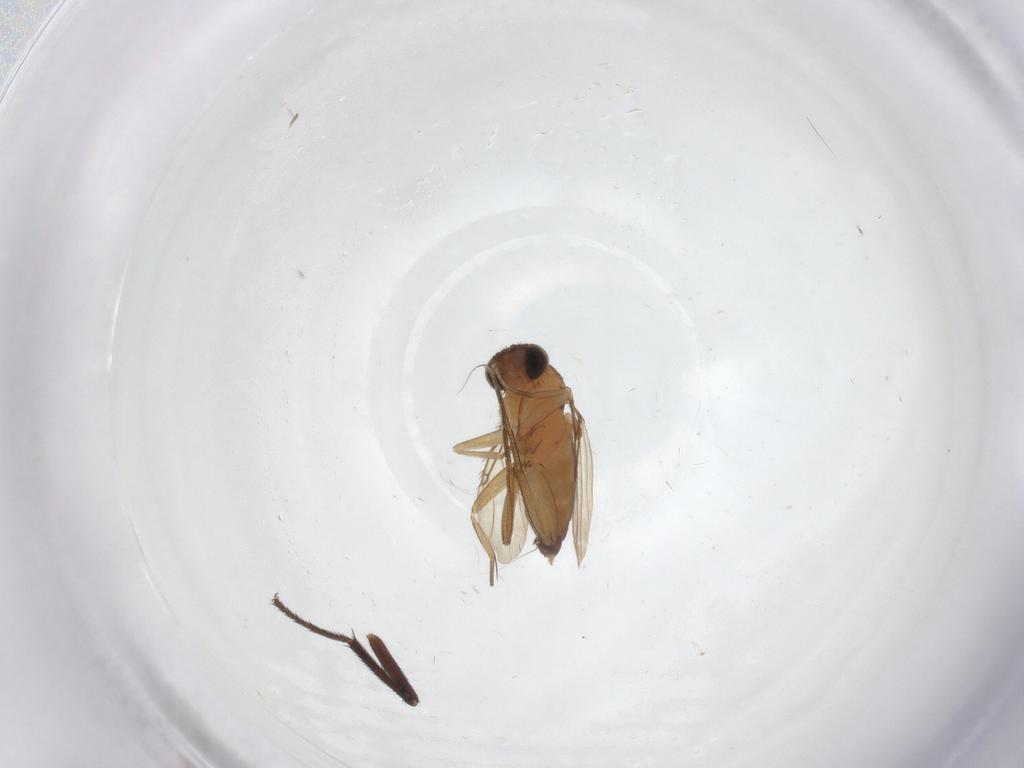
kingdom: Animalia
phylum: Arthropoda
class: Insecta
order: Diptera
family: Phoridae
